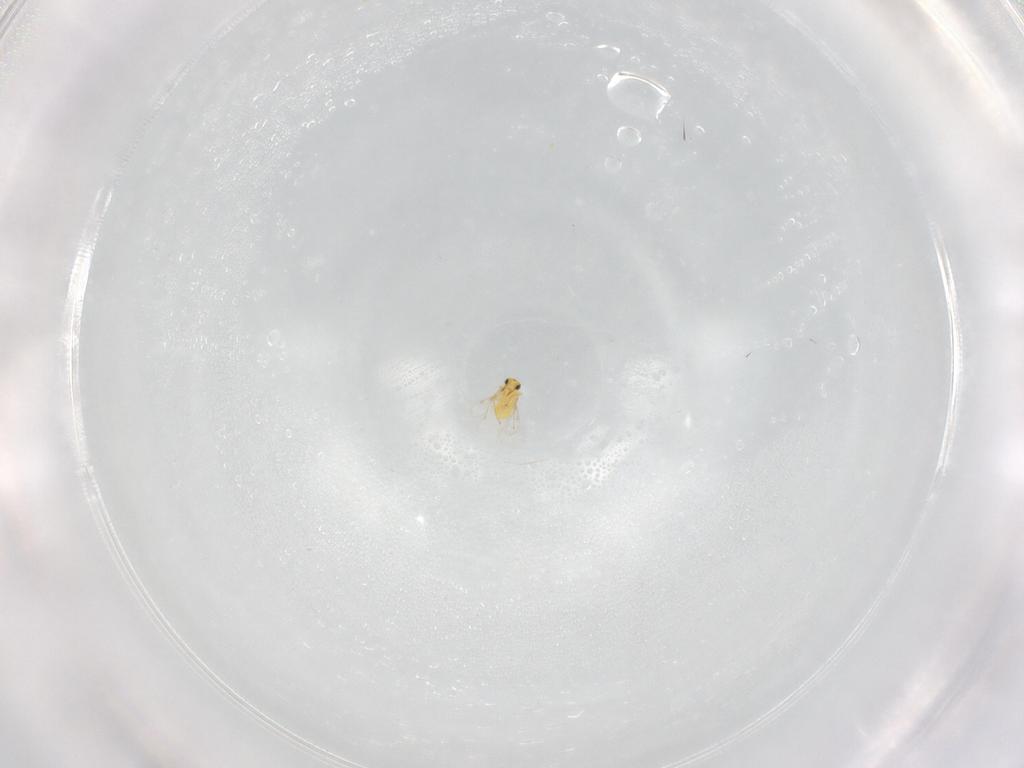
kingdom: Animalia
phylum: Arthropoda
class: Insecta
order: Hymenoptera
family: Trichogrammatidae
